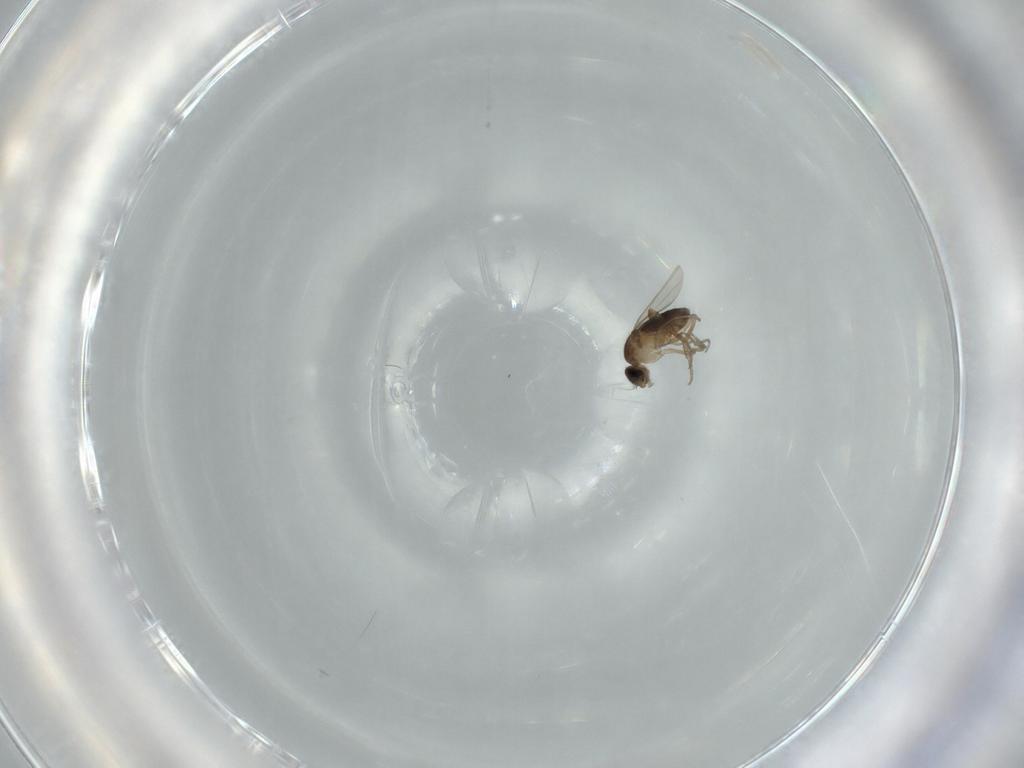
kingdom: Animalia
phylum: Arthropoda
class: Insecta
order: Diptera
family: Phoridae
